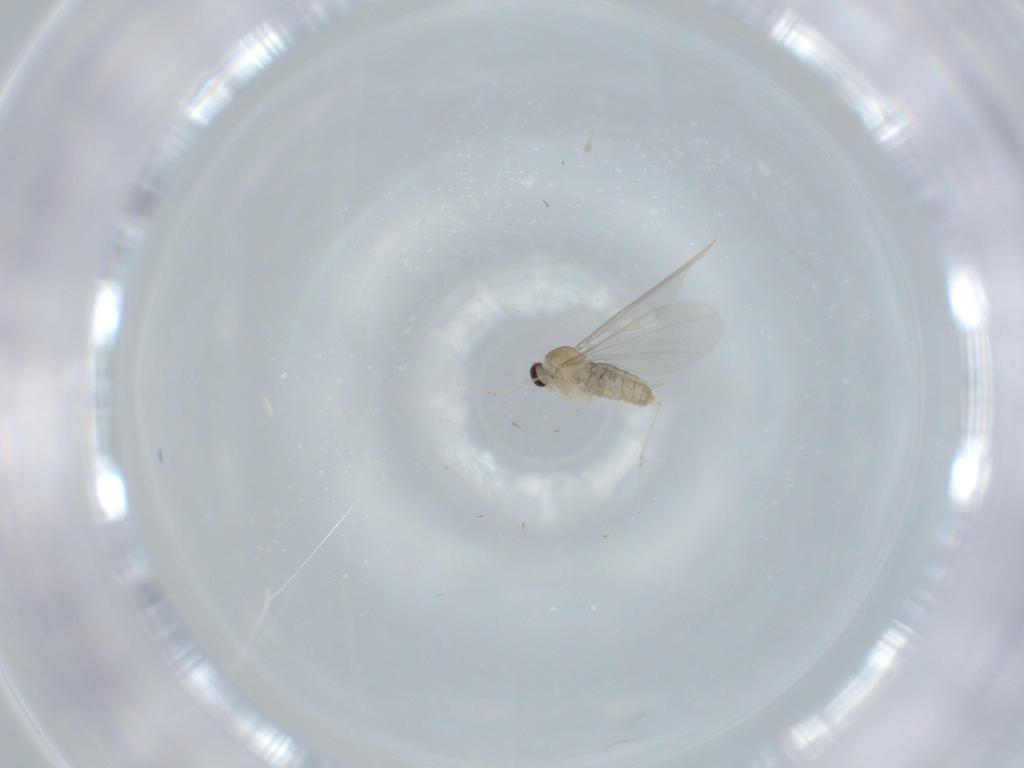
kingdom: Animalia
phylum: Arthropoda
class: Insecta
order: Diptera
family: Cecidomyiidae
